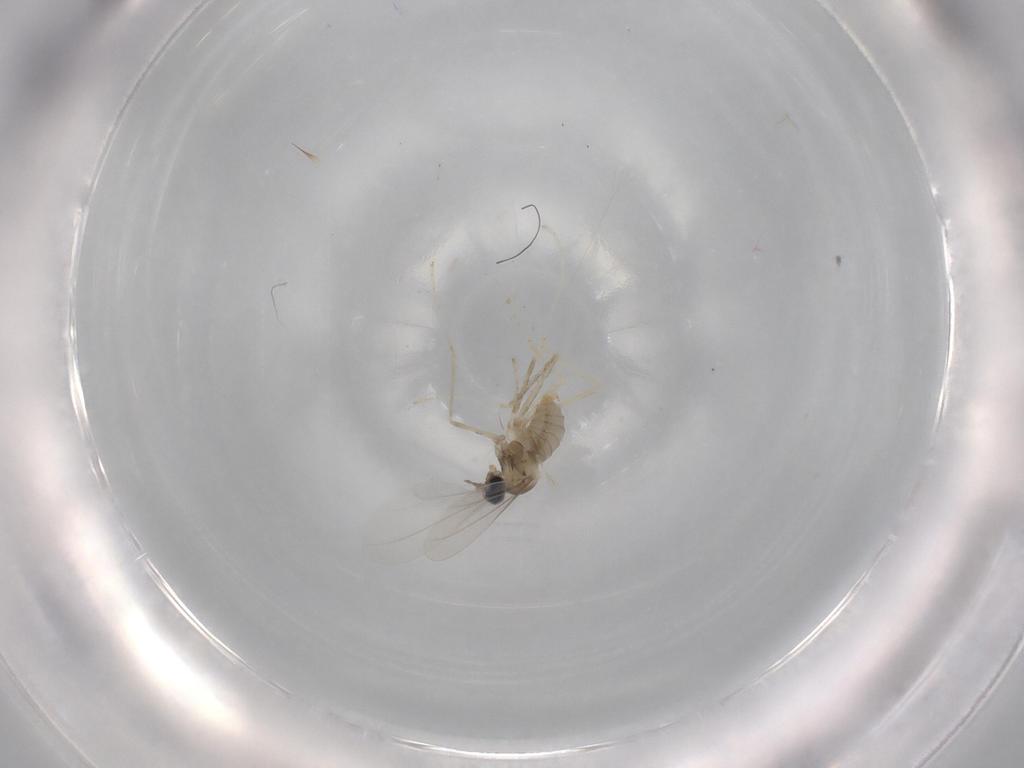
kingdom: Animalia
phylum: Arthropoda
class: Insecta
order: Diptera
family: Cecidomyiidae
